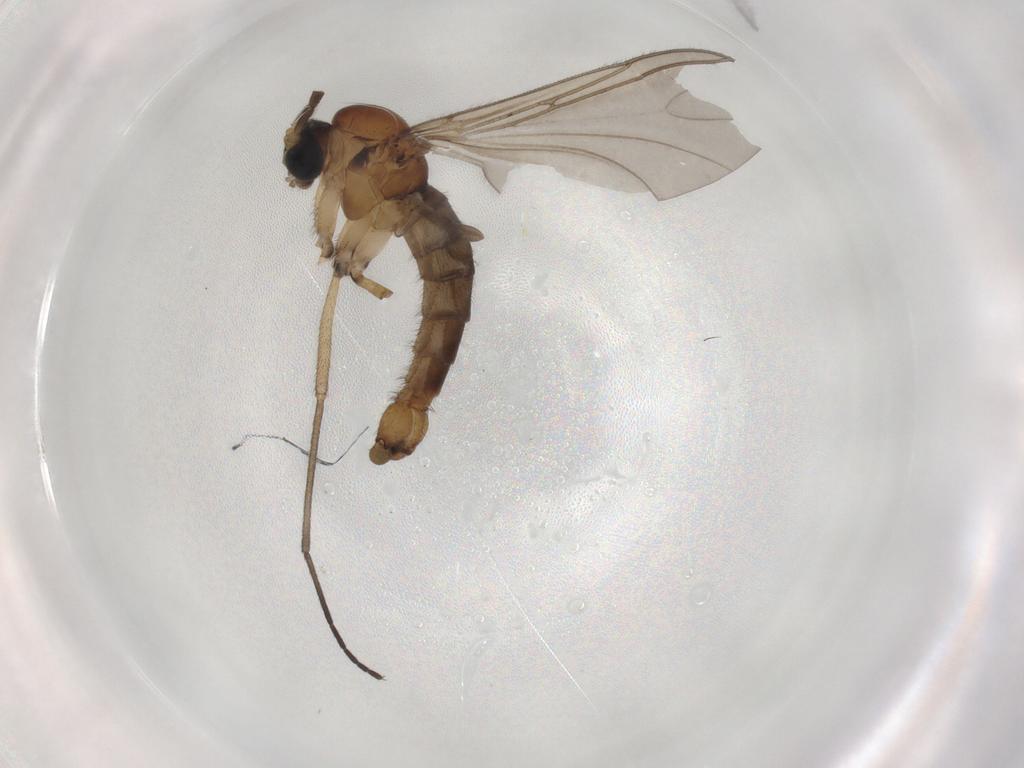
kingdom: Animalia
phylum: Arthropoda
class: Insecta
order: Diptera
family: Sciaridae
